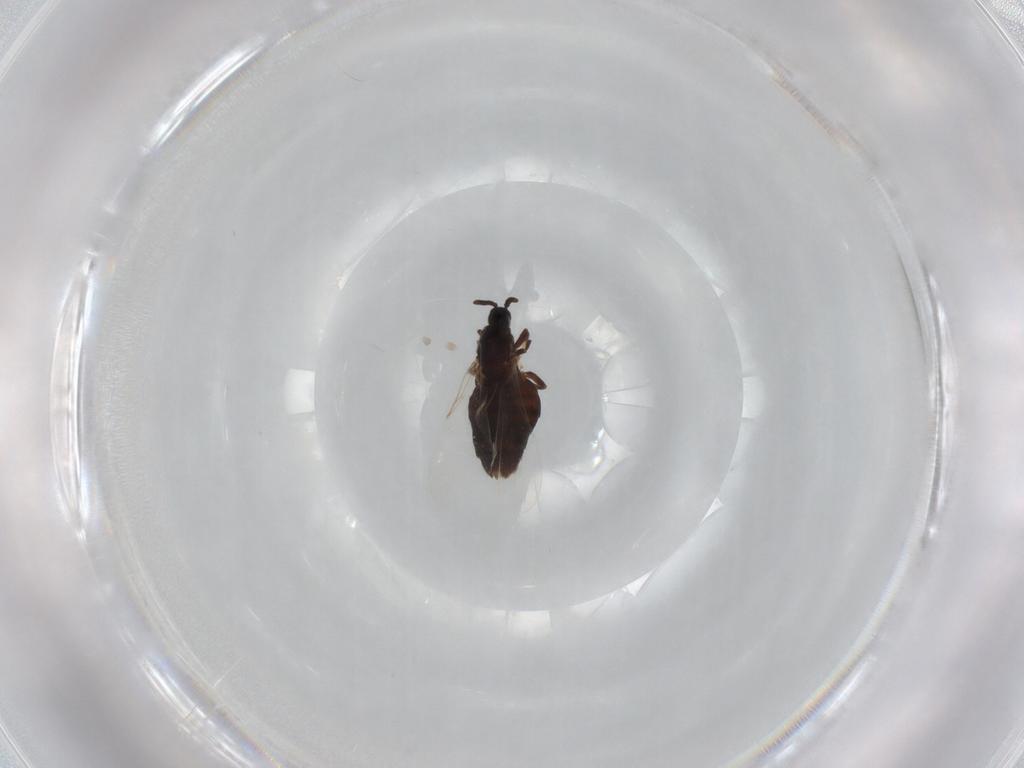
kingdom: Animalia
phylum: Arthropoda
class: Insecta
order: Diptera
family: Scatopsidae
